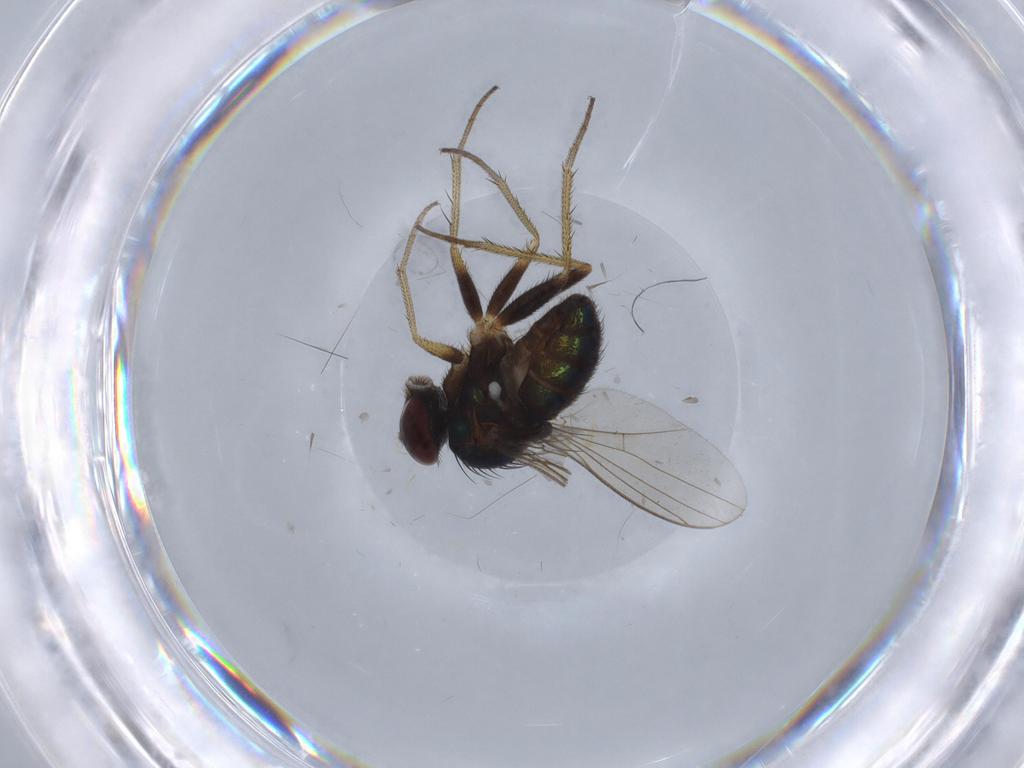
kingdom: Animalia
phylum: Arthropoda
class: Insecta
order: Diptera
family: Dolichopodidae
